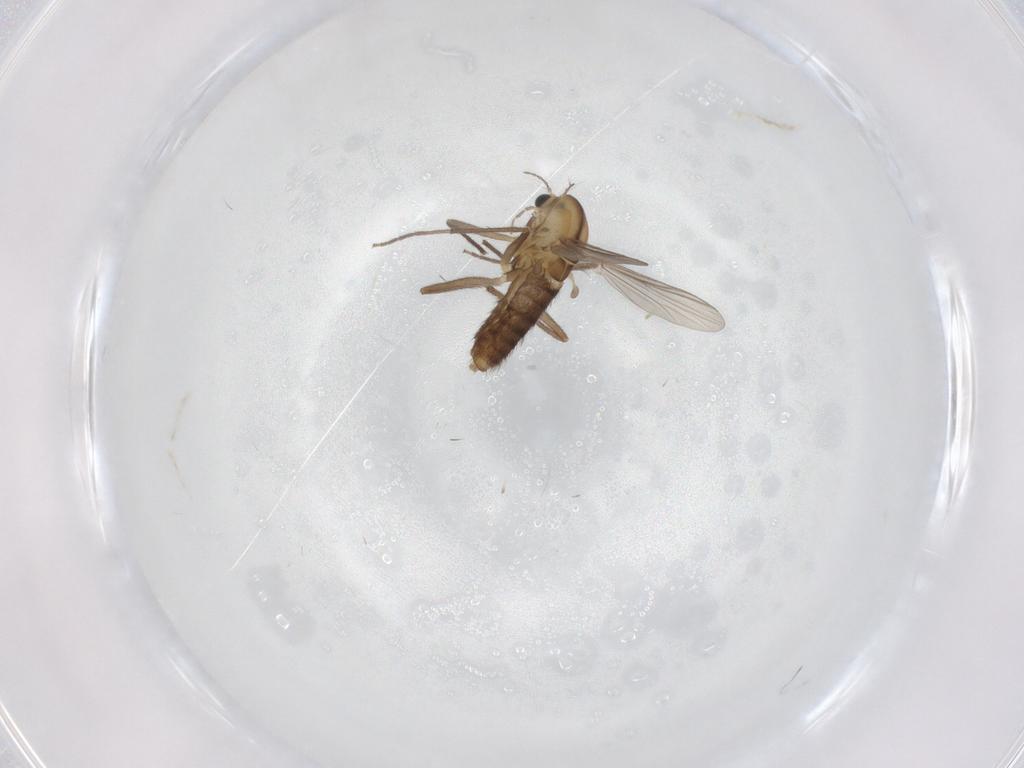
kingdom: Animalia
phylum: Arthropoda
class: Insecta
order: Diptera
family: Chironomidae
